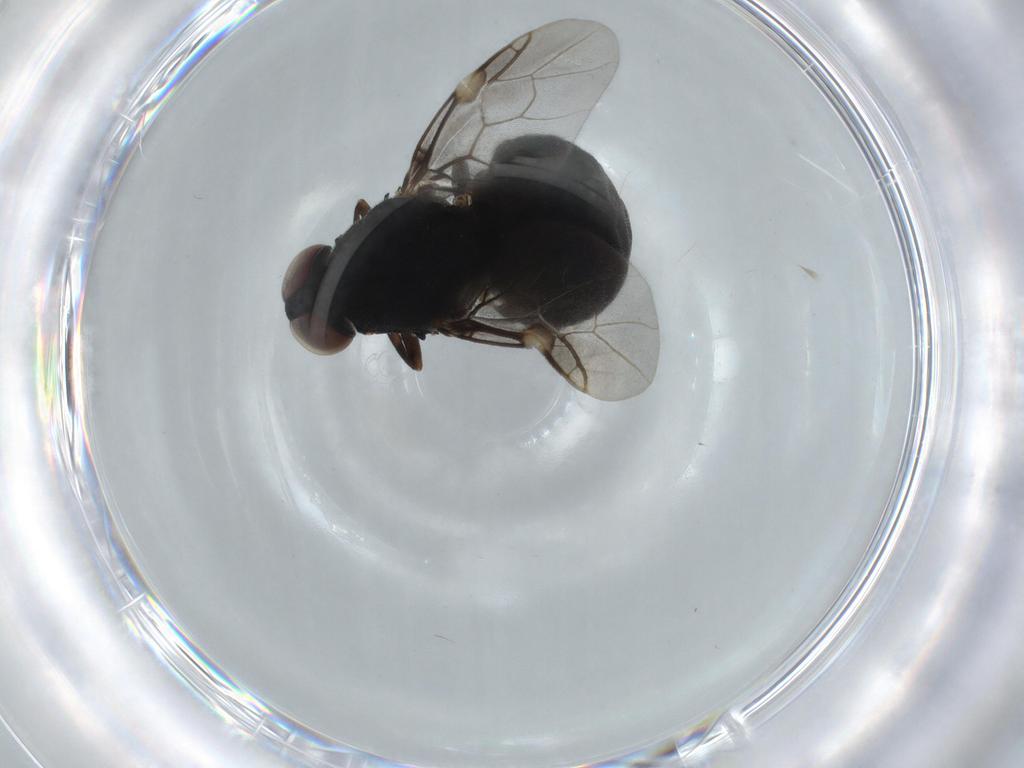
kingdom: Animalia
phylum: Arthropoda
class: Insecta
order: Diptera
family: Stratiomyidae
